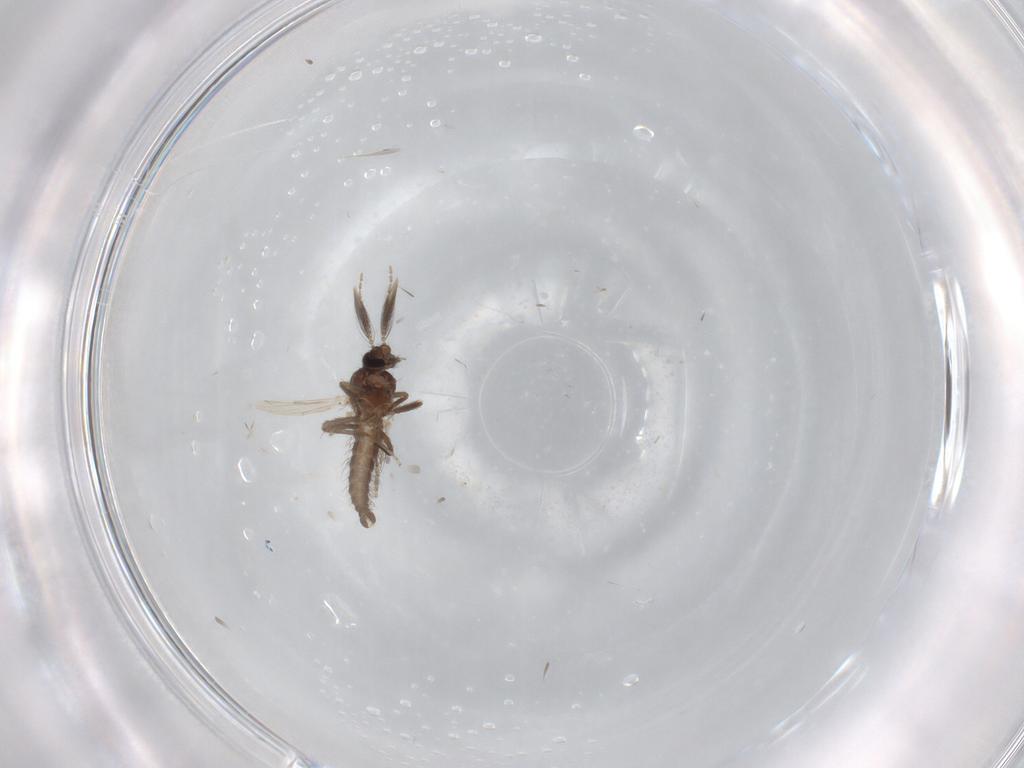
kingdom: Animalia
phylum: Arthropoda
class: Insecta
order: Diptera
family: Ceratopogonidae
